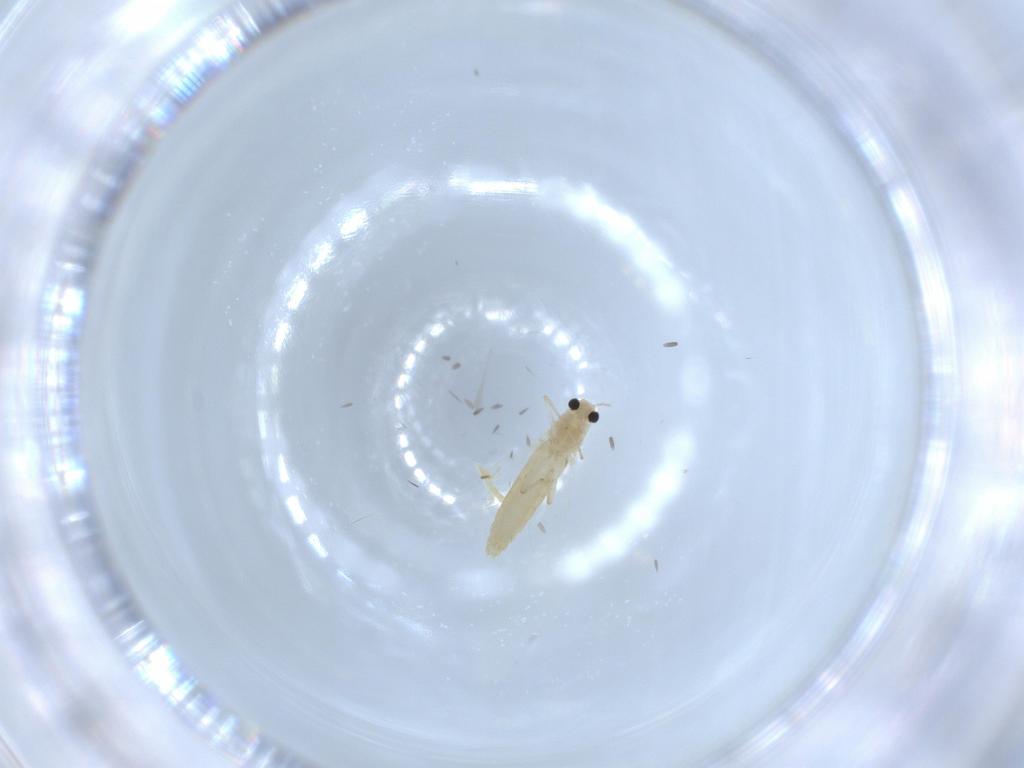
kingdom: Animalia
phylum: Arthropoda
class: Insecta
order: Diptera
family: Chironomidae
